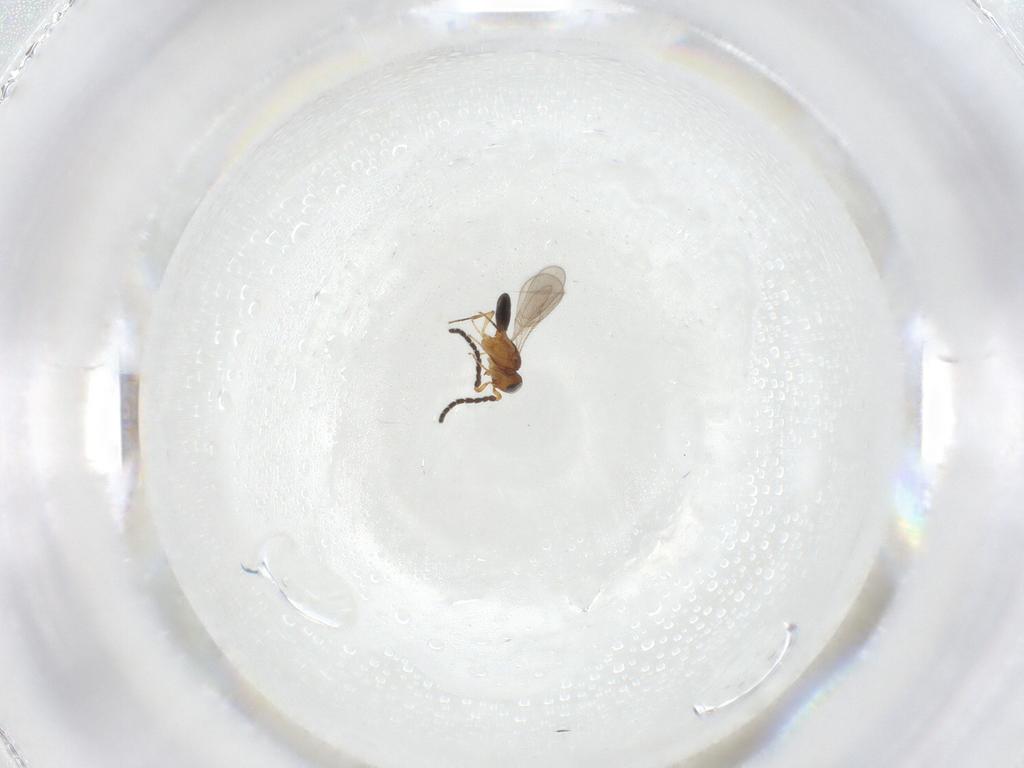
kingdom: Animalia
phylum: Arthropoda
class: Insecta
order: Hymenoptera
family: Scelionidae
